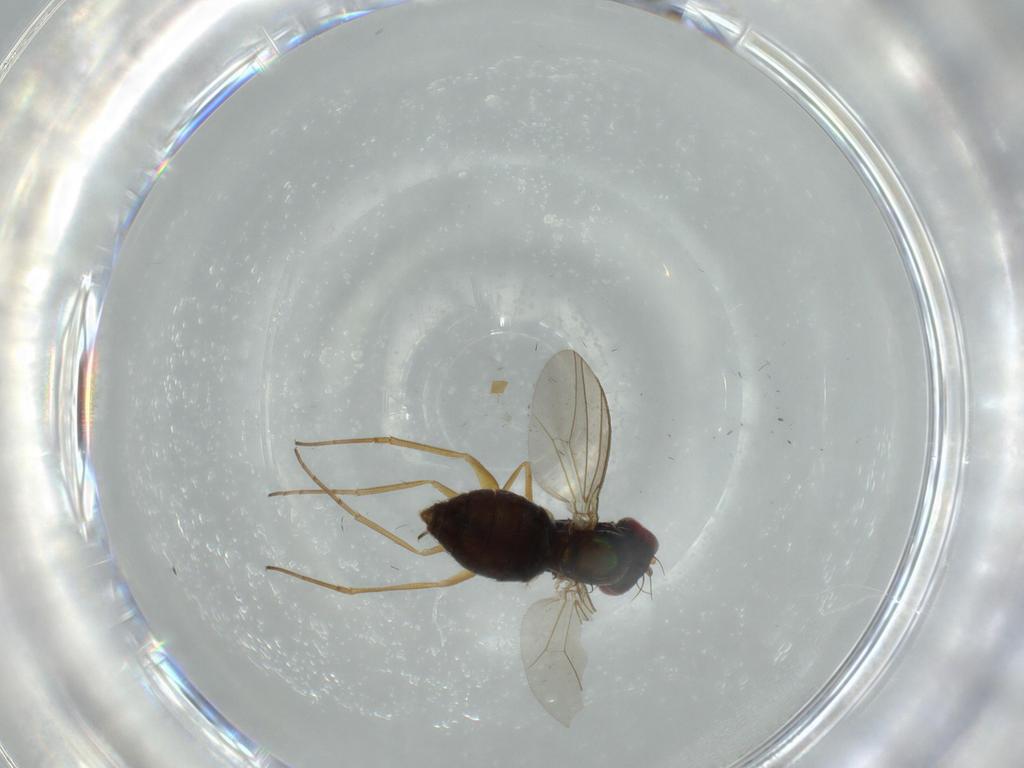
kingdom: Animalia
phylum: Arthropoda
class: Insecta
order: Diptera
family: Dolichopodidae
